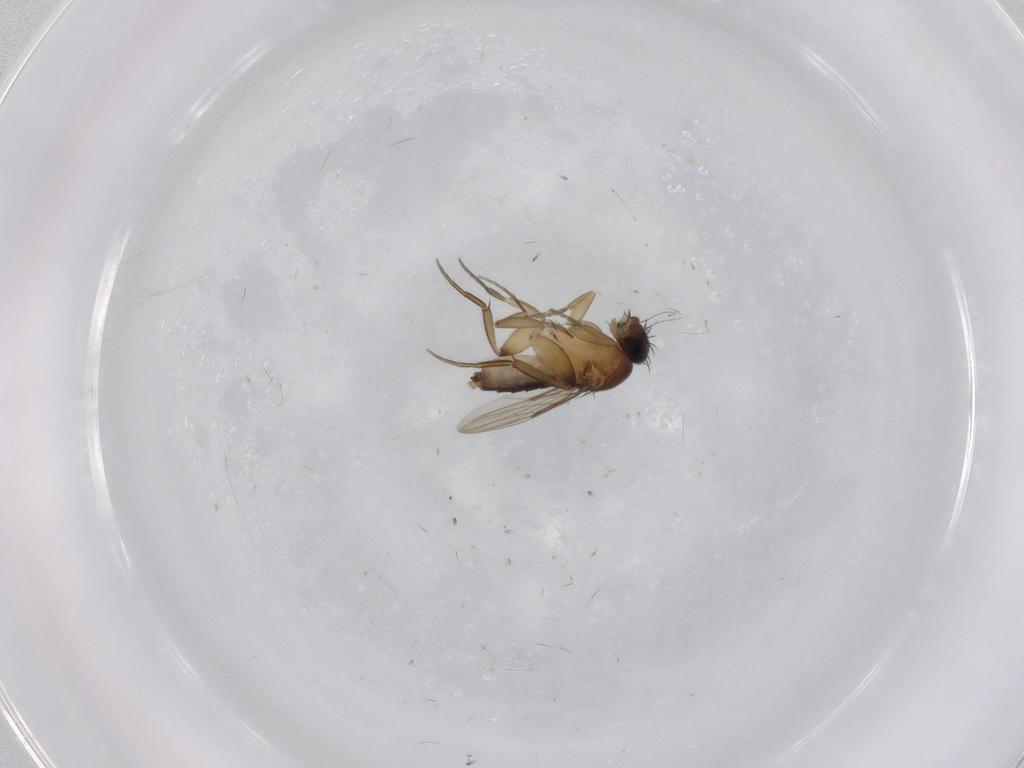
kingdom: Animalia
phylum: Arthropoda
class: Insecta
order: Diptera
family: Phoridae
